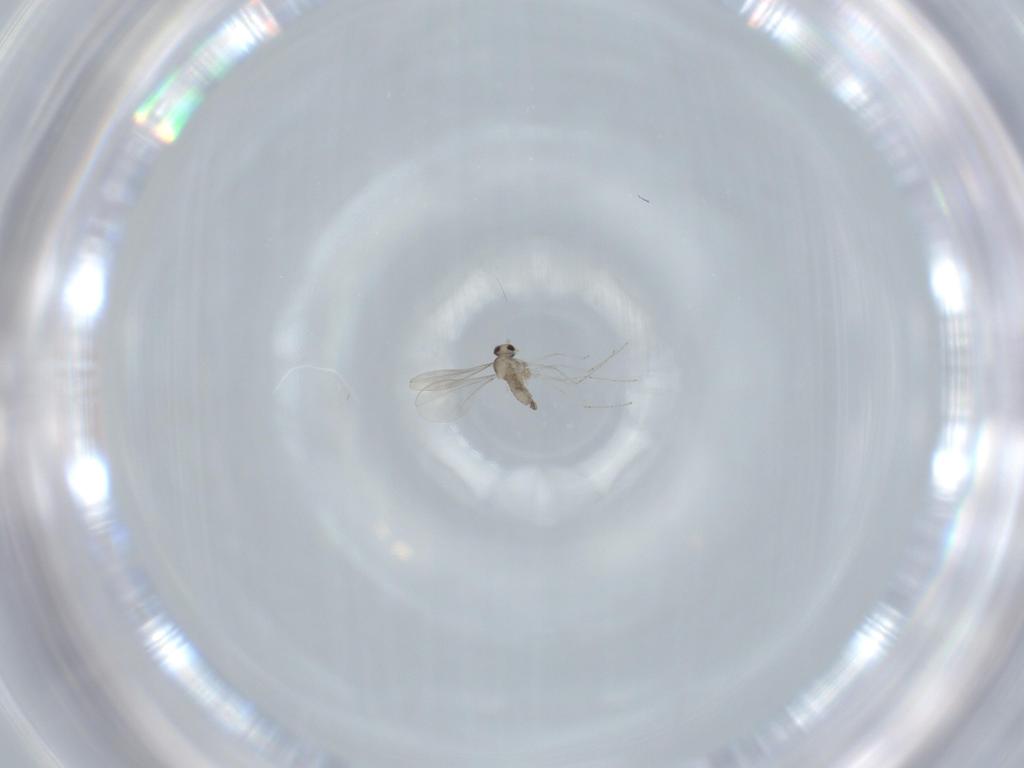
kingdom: Animalia
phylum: Arthropoda
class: Insecta
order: Diptera
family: Cecidomyiidae
